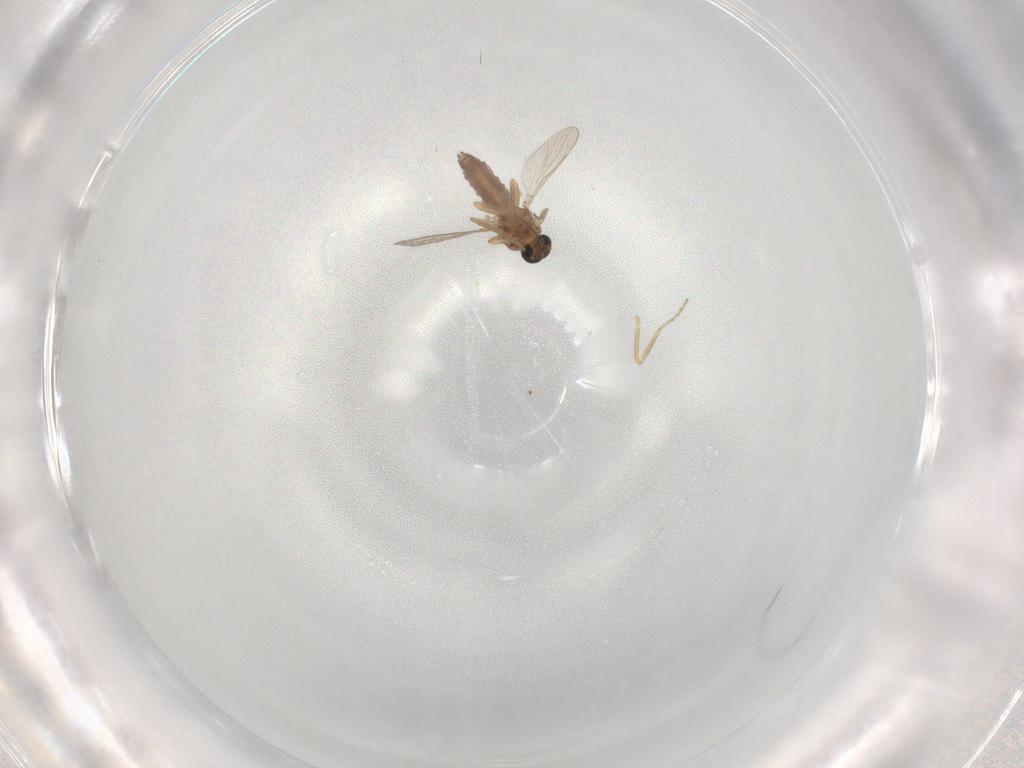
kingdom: Animalia
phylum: Arthropoda
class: Insecta
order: Diptera
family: Ceratopogonidae
